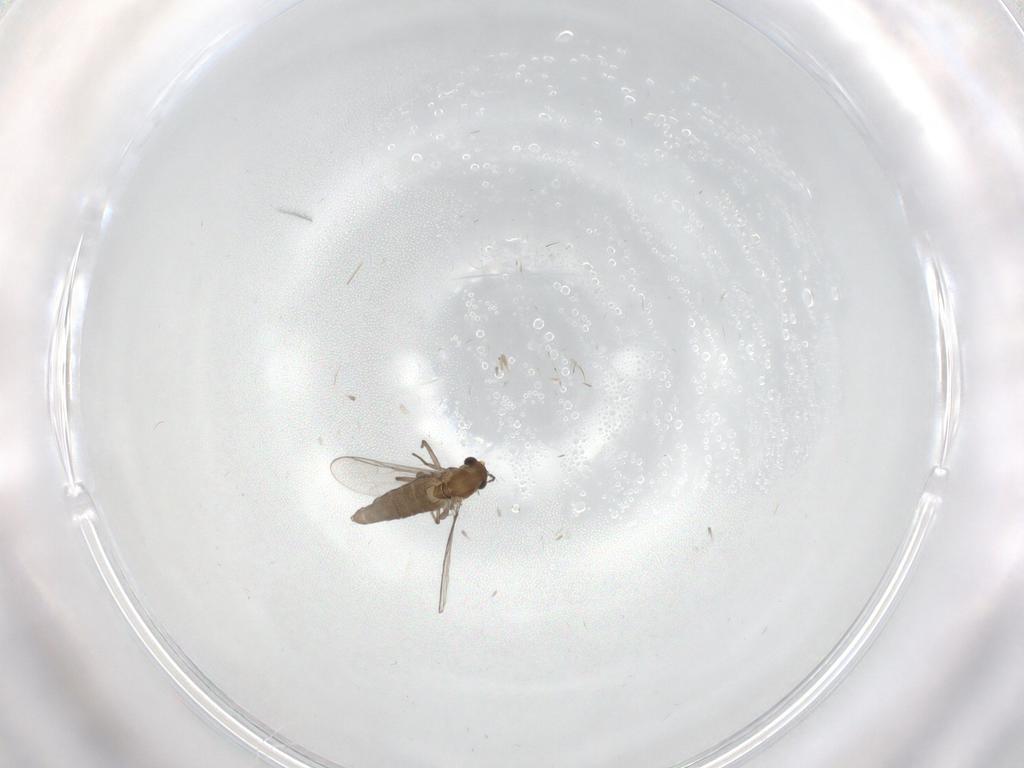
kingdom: Animalia
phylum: Arthropoda
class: Insecta
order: Diptera
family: Chironomidae
